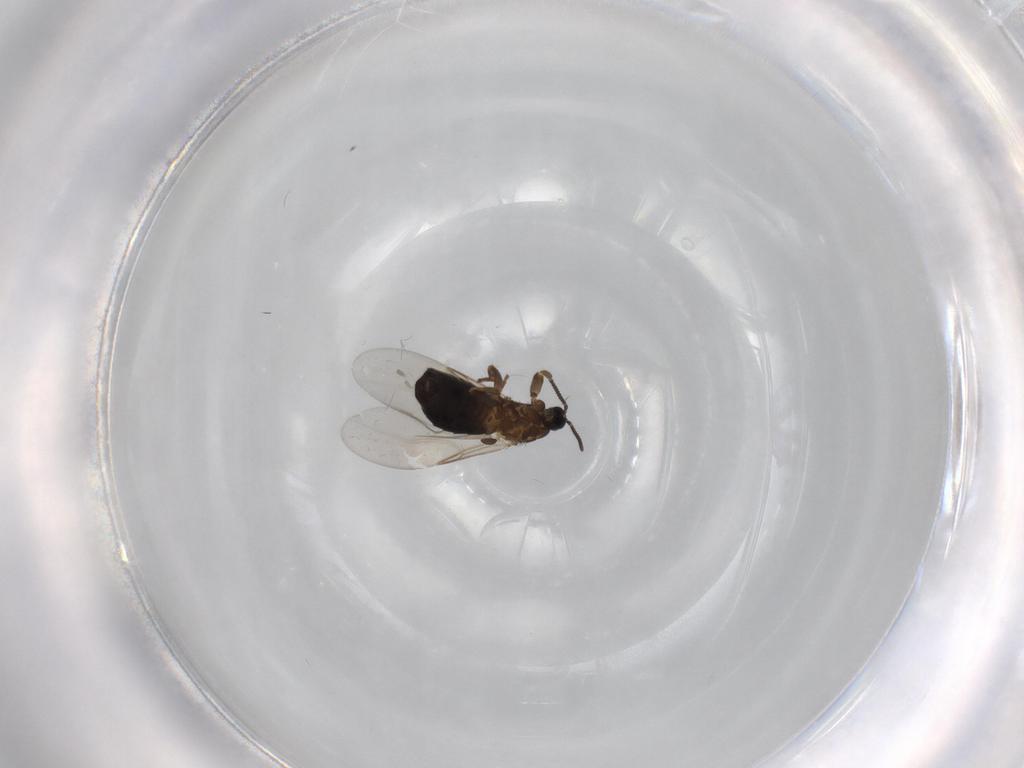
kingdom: Animalia
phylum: Arthropoda
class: Insecta
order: Diptera
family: Scatopsidae
